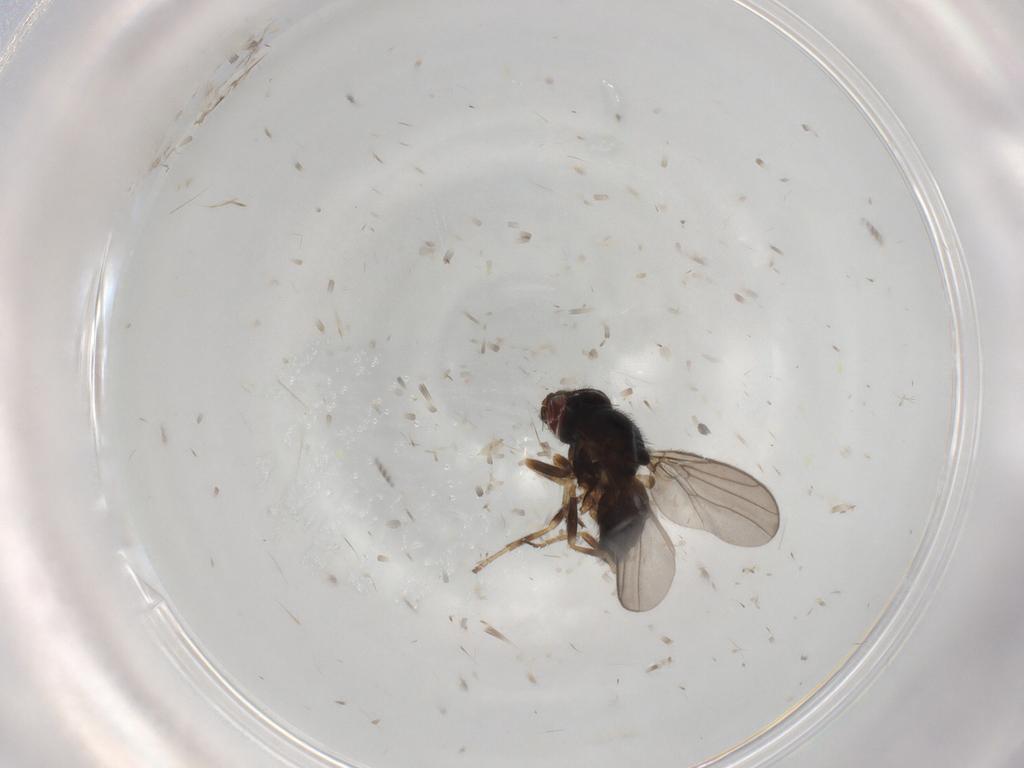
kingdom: Animalia
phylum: Arthropoda
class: Insecta
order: Diptera
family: Chloropidae
